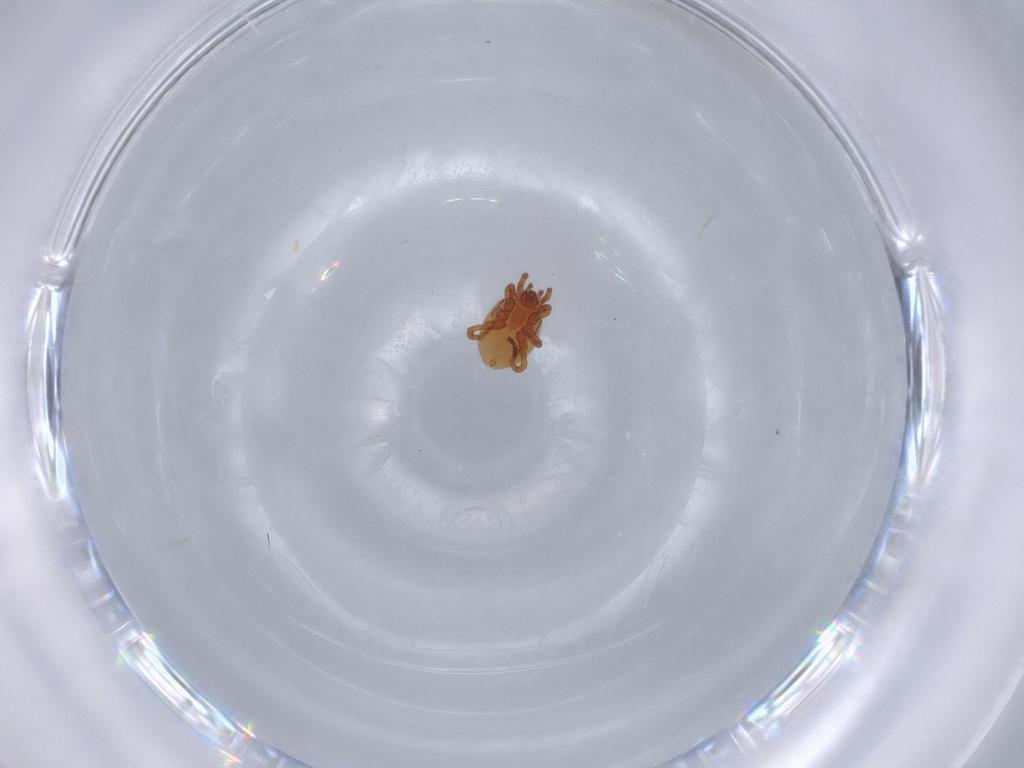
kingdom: Animalia
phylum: Arthropoda
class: Arachnida
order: Mesostigmata
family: Parasitidae
